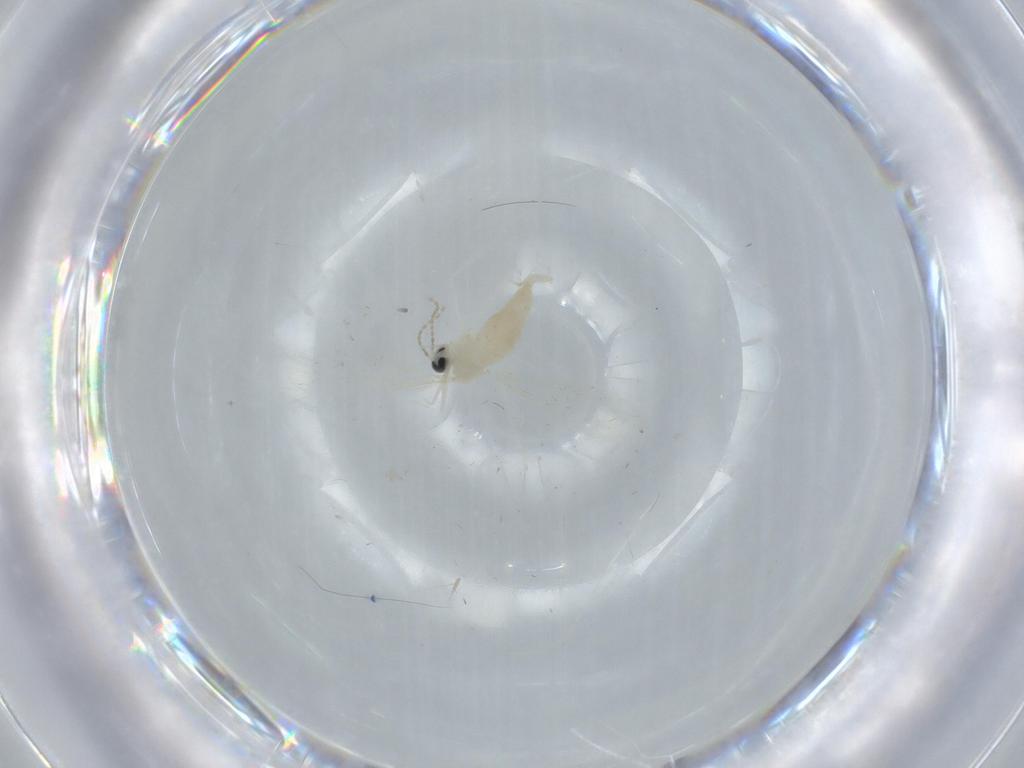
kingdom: Animalia
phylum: Arthropoda
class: Insecta
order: Diptera
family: Cecidomyiidae
